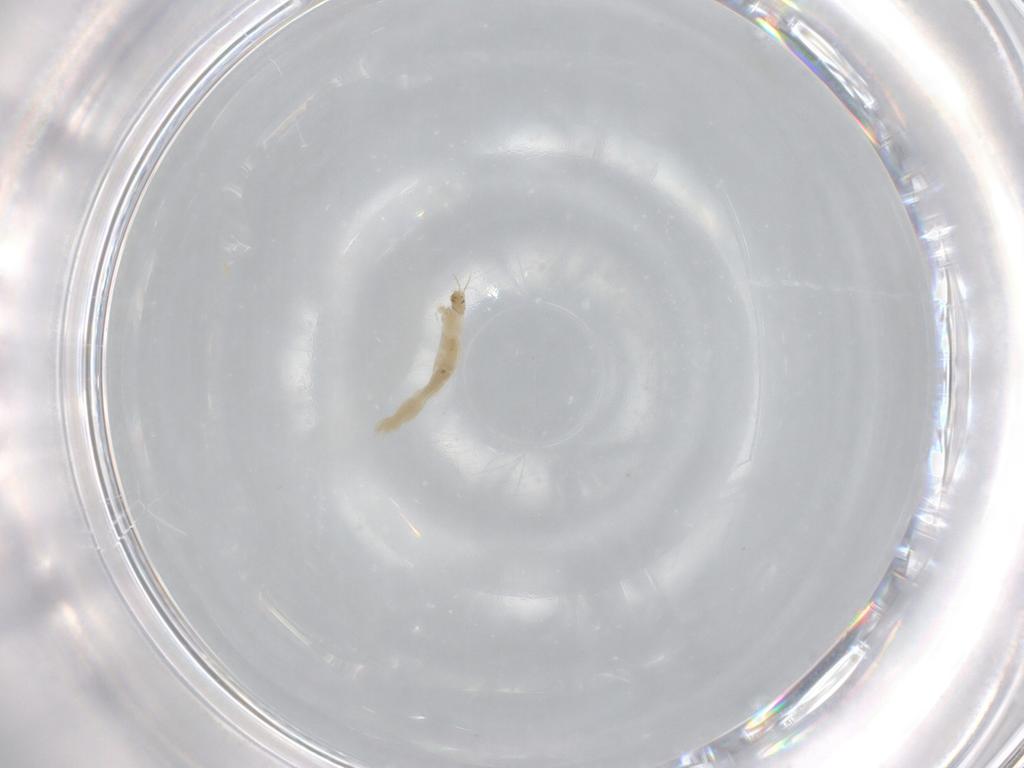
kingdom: Animalia
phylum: Arthropoda
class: Insecta
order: Diptera
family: Chironomidae
